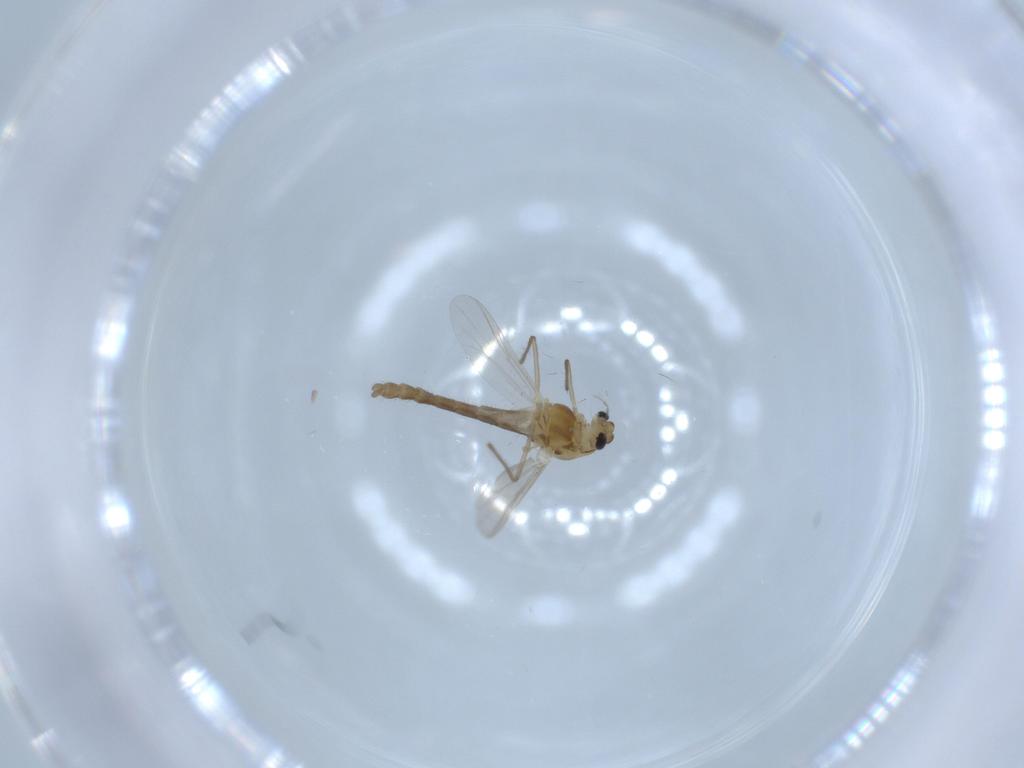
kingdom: Animalia
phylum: Arthropoda
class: Insecta
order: Diptera
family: Chironomidae
